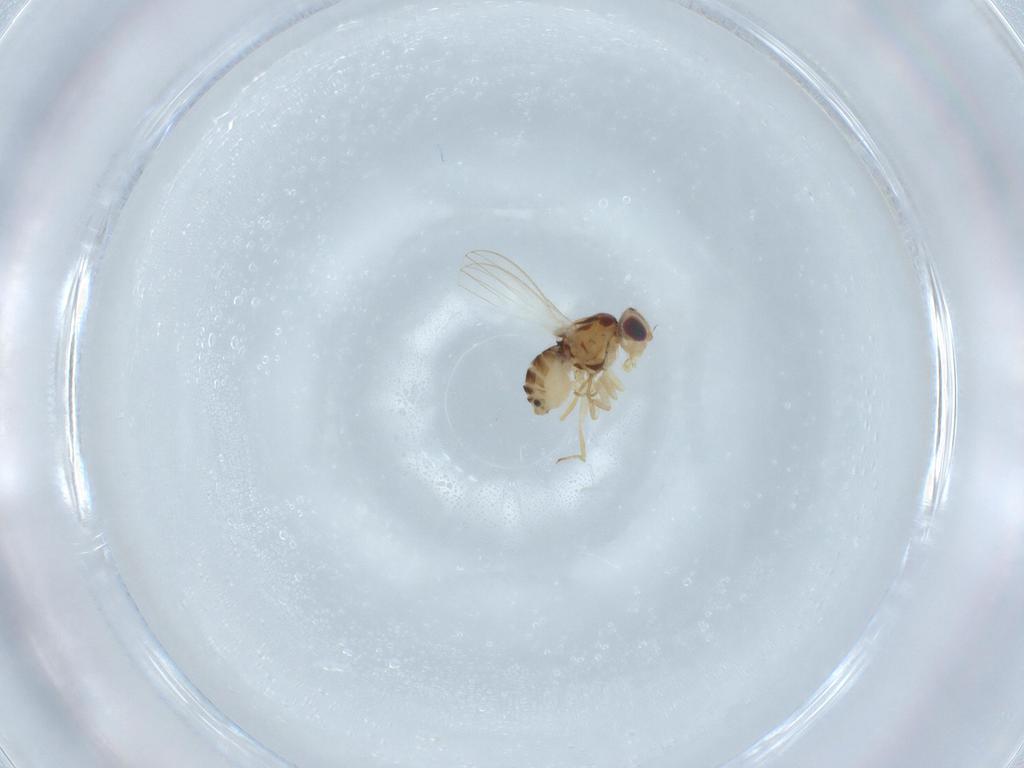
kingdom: Animalia
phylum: Arthropoda
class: Insecta
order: Diptera
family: Chyromyidae
